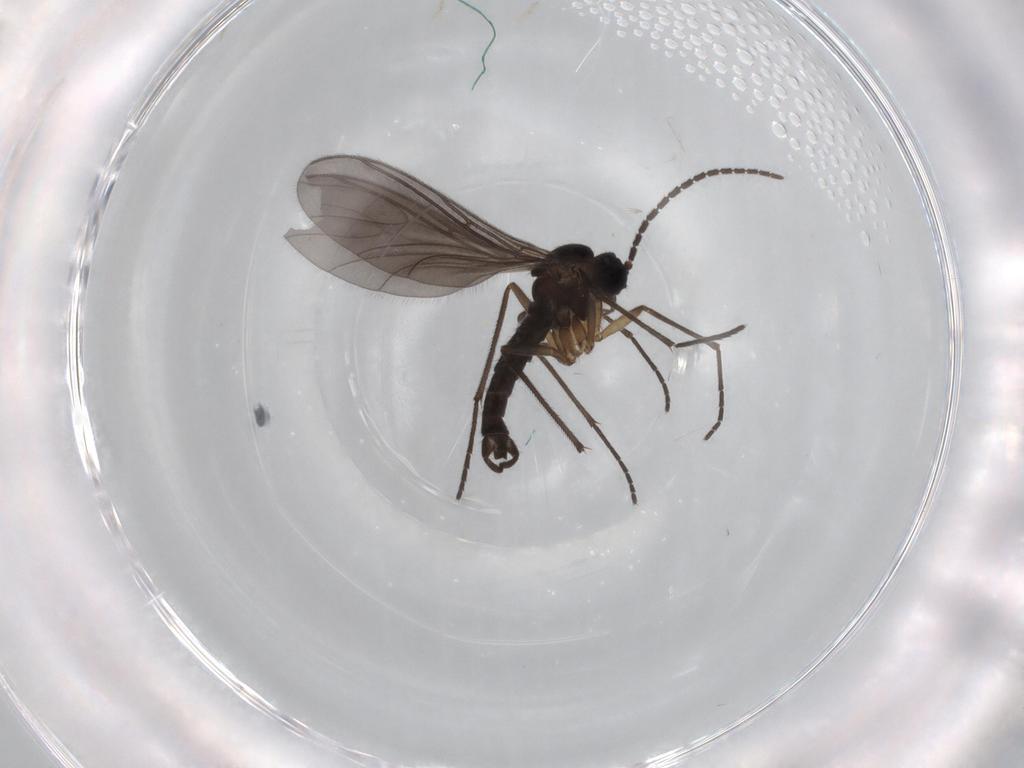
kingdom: Animalia
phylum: Arthropoda
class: Insecta
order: Diptera
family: Sciaridae
